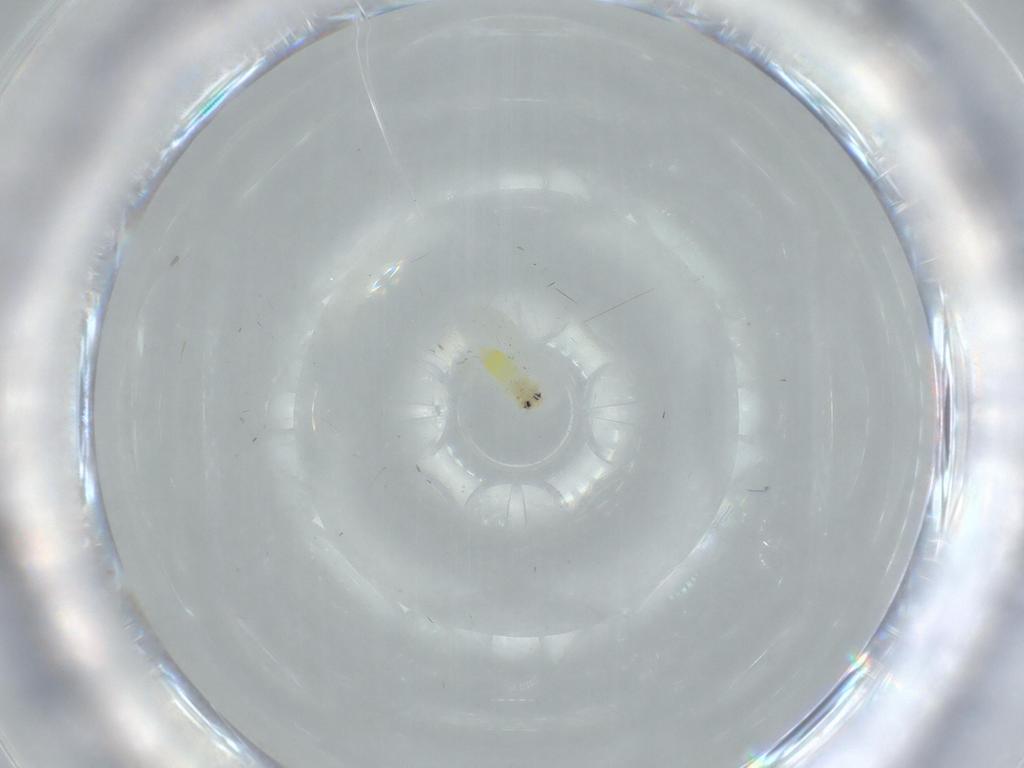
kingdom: Animalia
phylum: Arthropoda
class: Insecta
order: Hemiptera
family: Aleyrodidae
